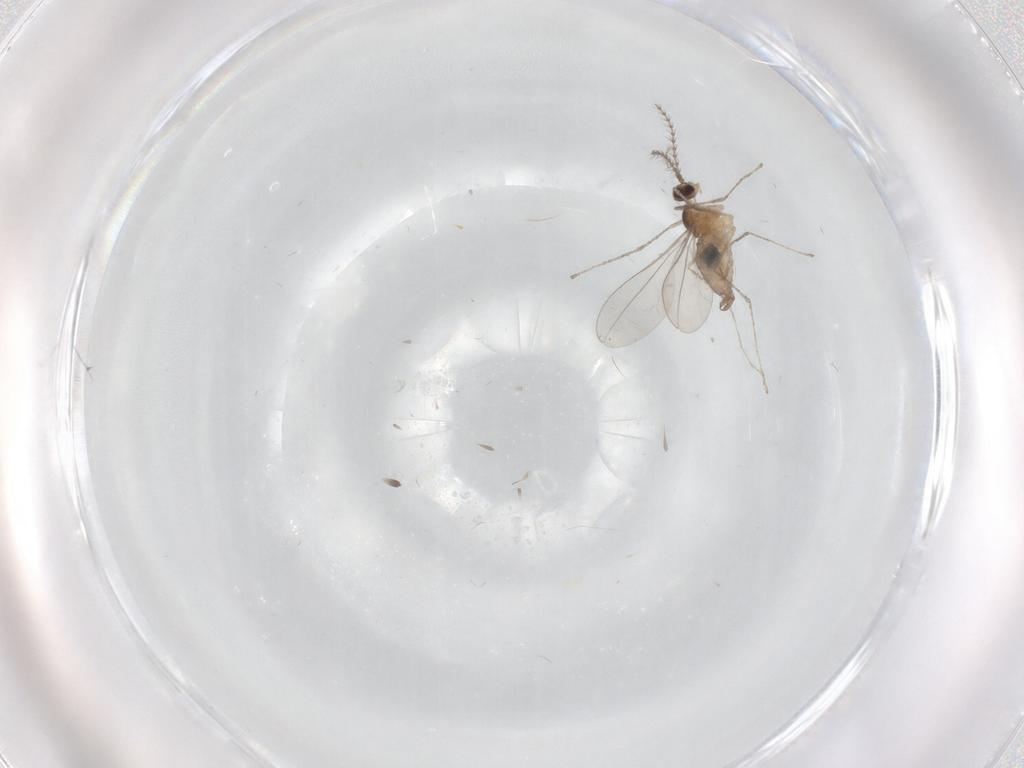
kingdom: Animalia
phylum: Arthropoda
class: Insecta
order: Diptera
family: Cecidomyiidae
